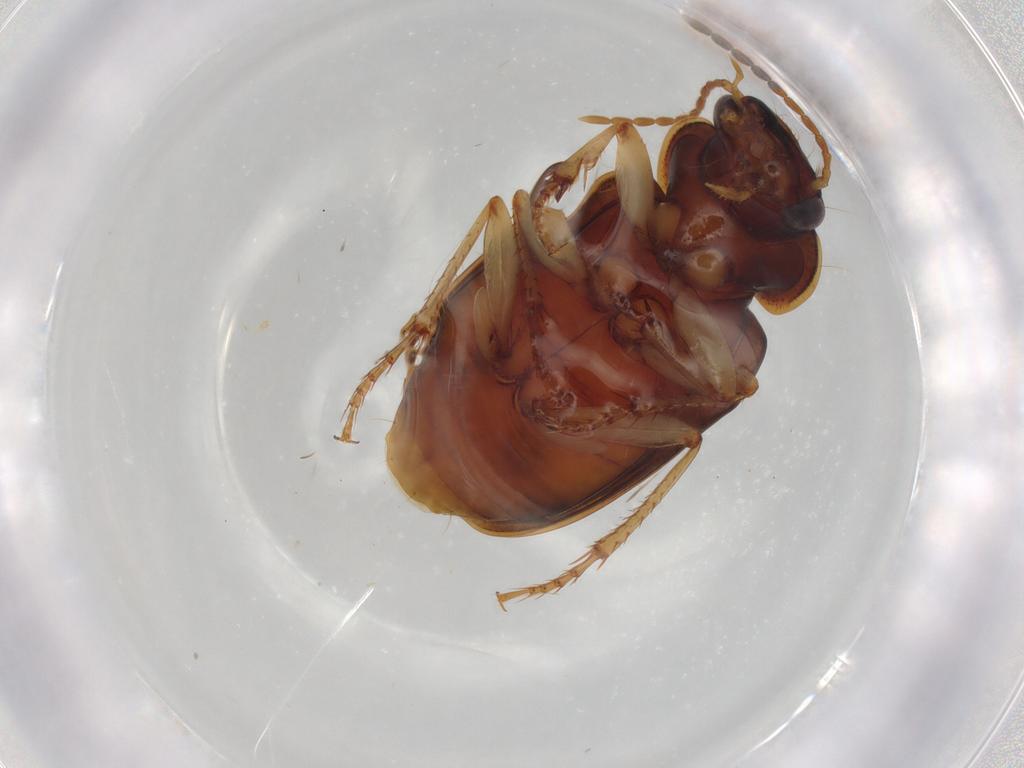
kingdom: Animalia
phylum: Arthropoda
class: Insecta
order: Coleoptera
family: Carabidae
